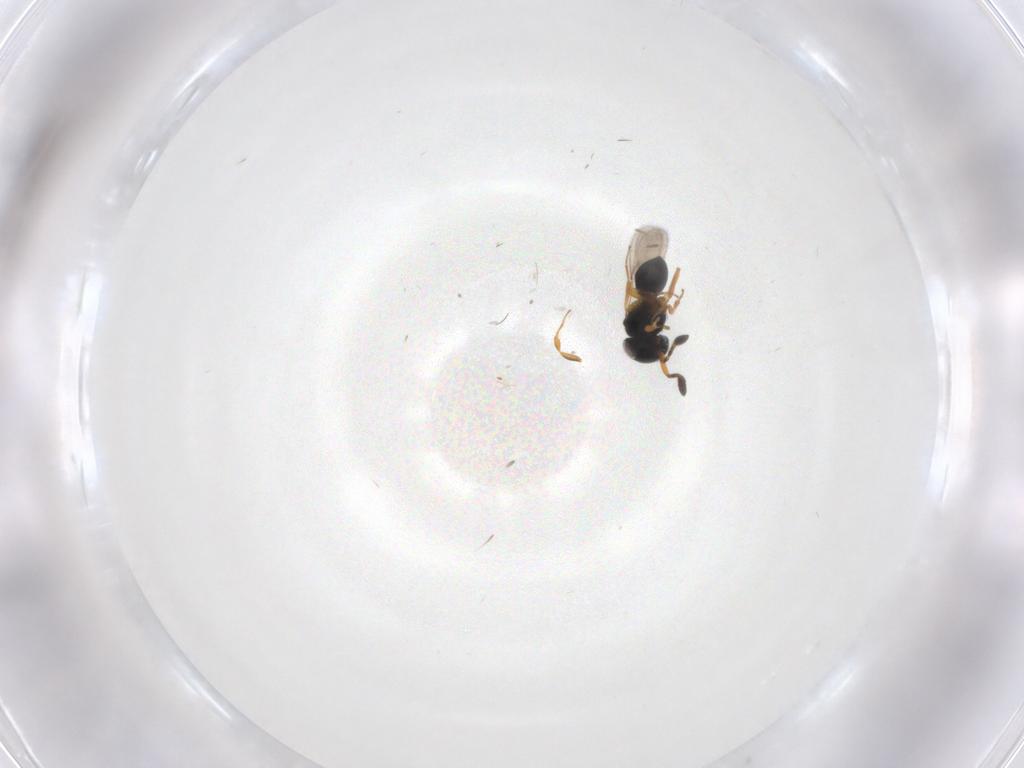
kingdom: Animalia
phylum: Arthropoda
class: Insecta
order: Hymenoptera
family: Scelionidae
